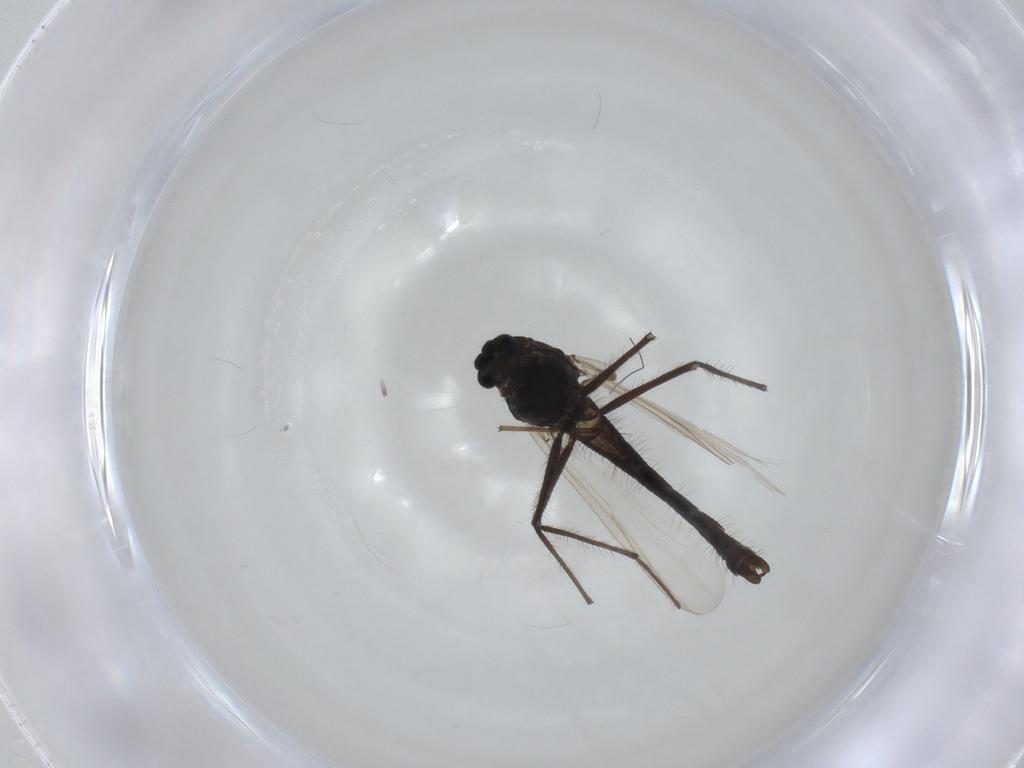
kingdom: Animalia
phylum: Arthropoda
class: Insecta
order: Diptera
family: Chironomidae
